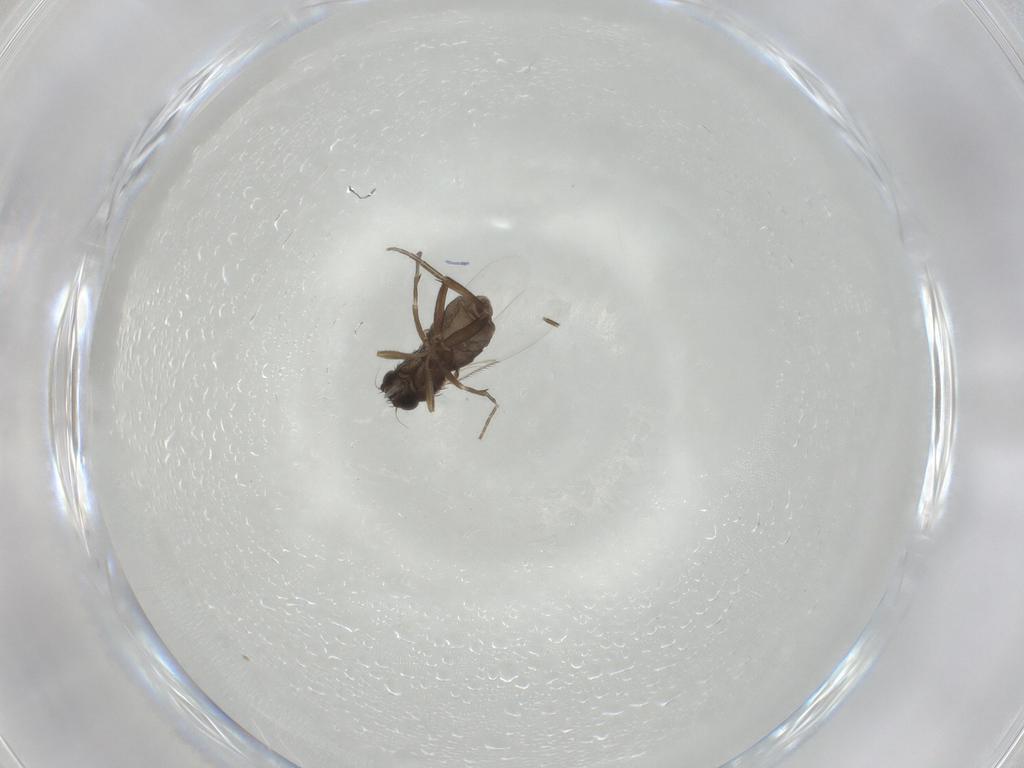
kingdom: Animalia
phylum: Arthropoda
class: Insecta
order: Diptera
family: Phoridae
